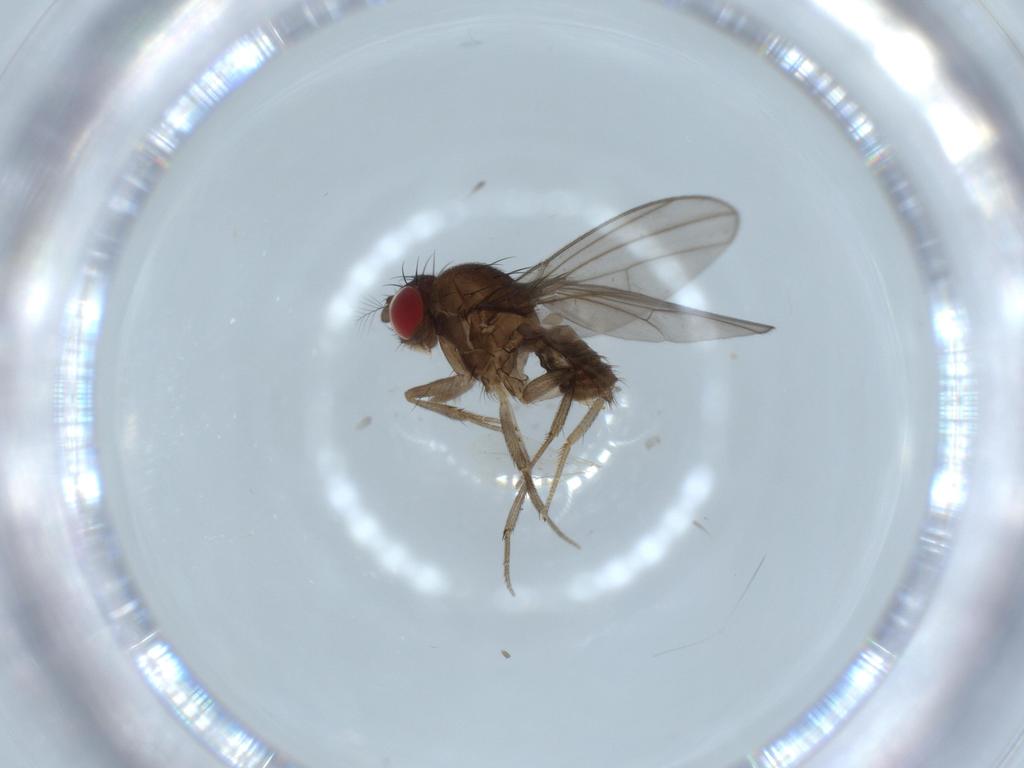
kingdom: Animalia
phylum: Arthropoda
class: Insecta
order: Diptera
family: Drosophilidae
